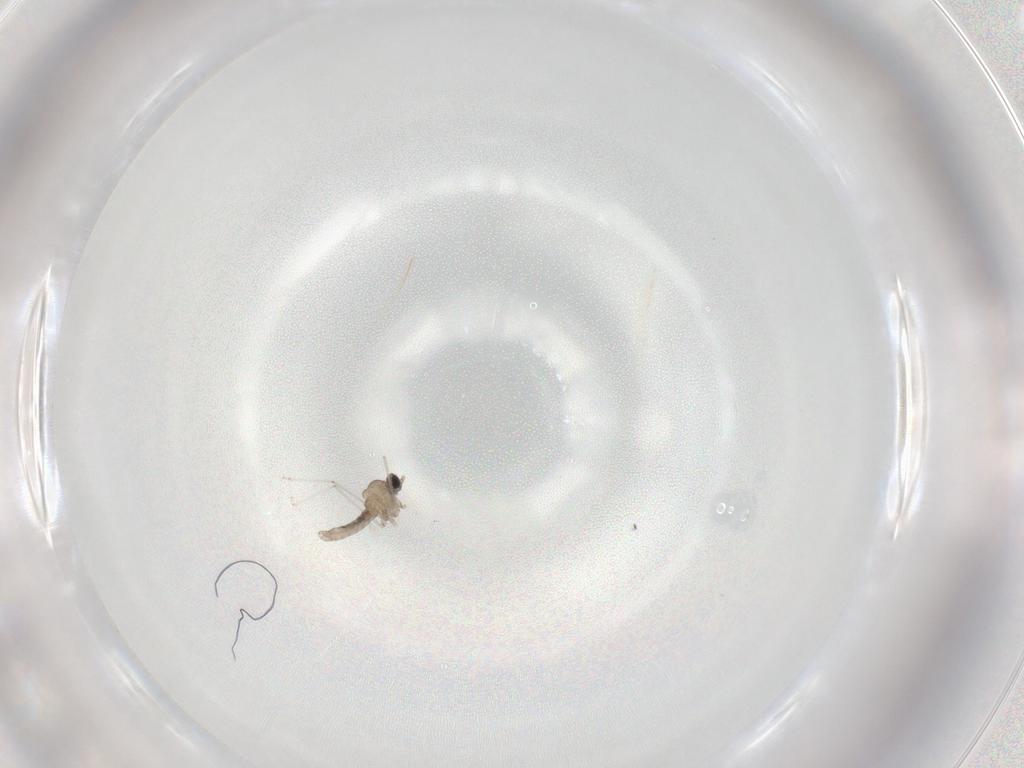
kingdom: Animalia
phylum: Arthropoda
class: Insecta
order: Diptera
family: Cecidomyiidae
